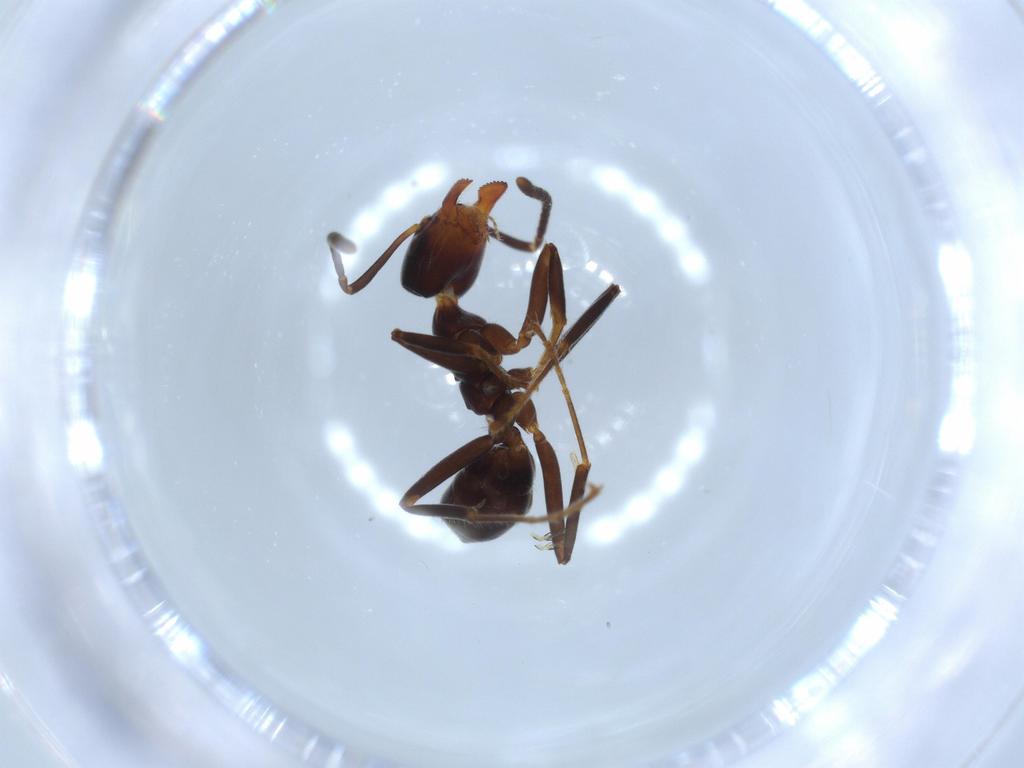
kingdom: Animalia
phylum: Arthropoda
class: Insecta
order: Hymenoptera
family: Formicidae
